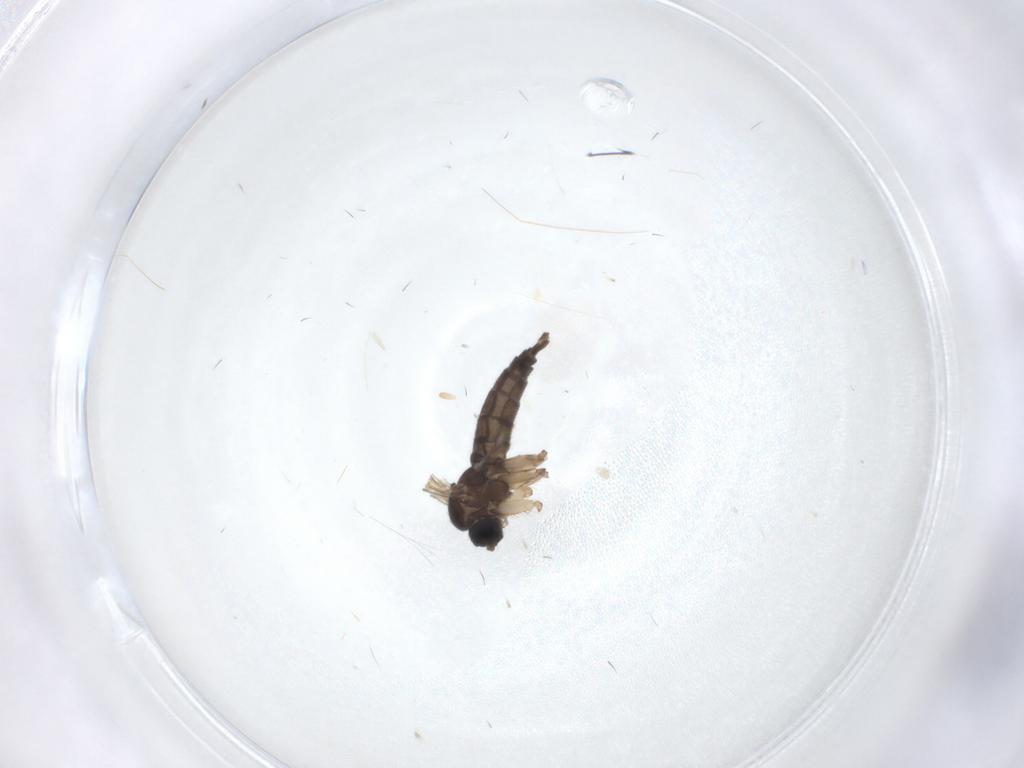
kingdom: Animalia
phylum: Arthropoda
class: Insecta
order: Diptera
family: Sciaridae
